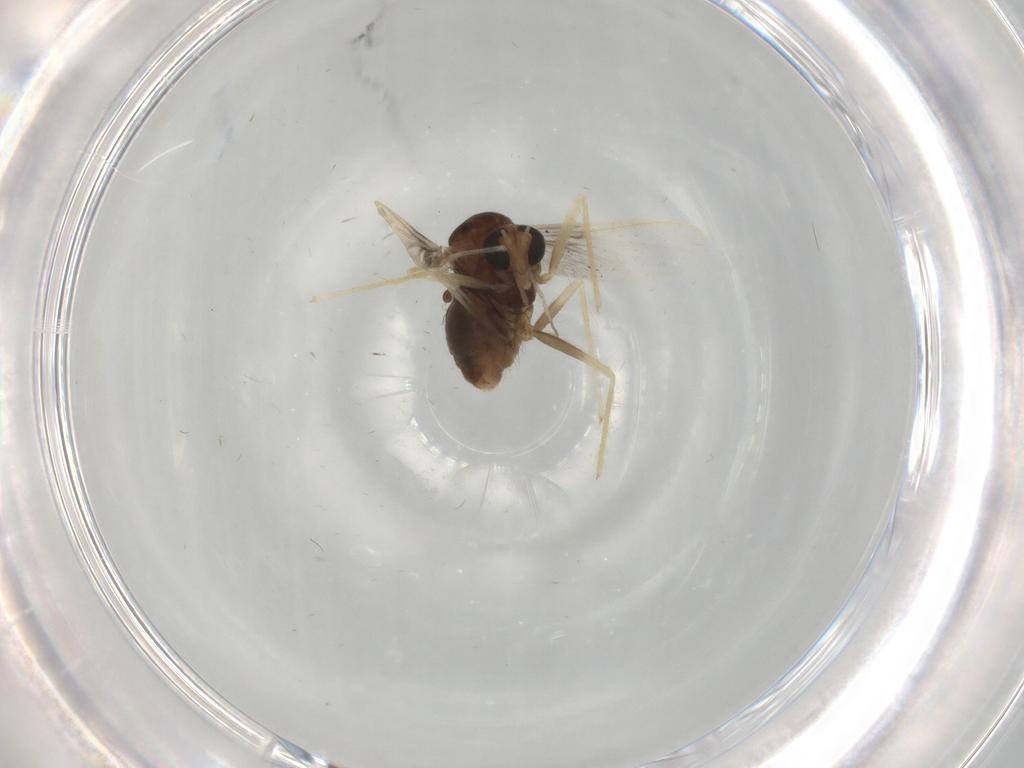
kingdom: Animalia
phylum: Arthropoda
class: Insecta
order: Diptera
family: Chironomidae
